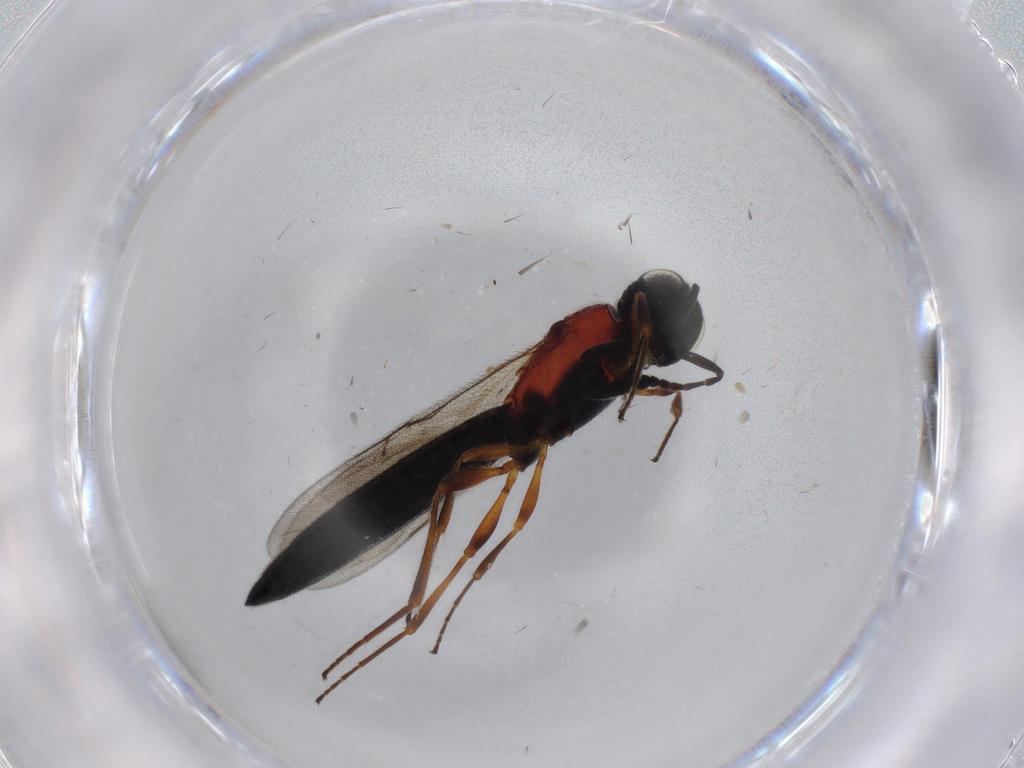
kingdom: Animalia
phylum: Arthropoda
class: Insecta
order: Hymenoptera
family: Scelionidae
